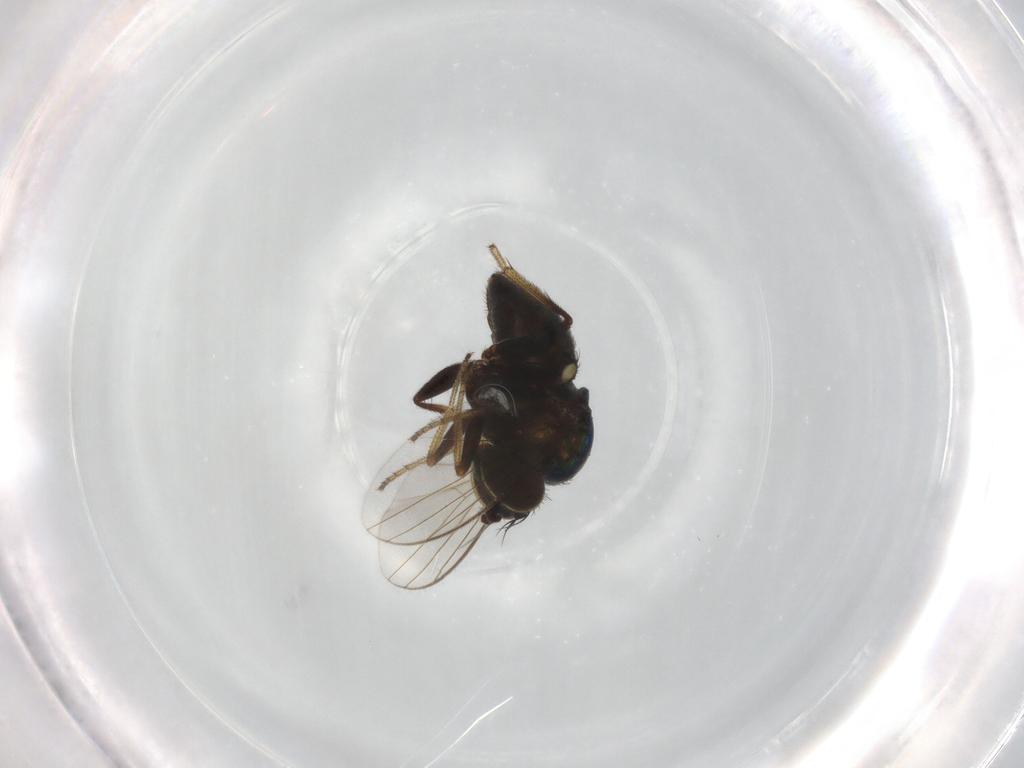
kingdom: Animalia
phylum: Arthropoda
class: Insecta
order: Diptera
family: Dolichopodidae
